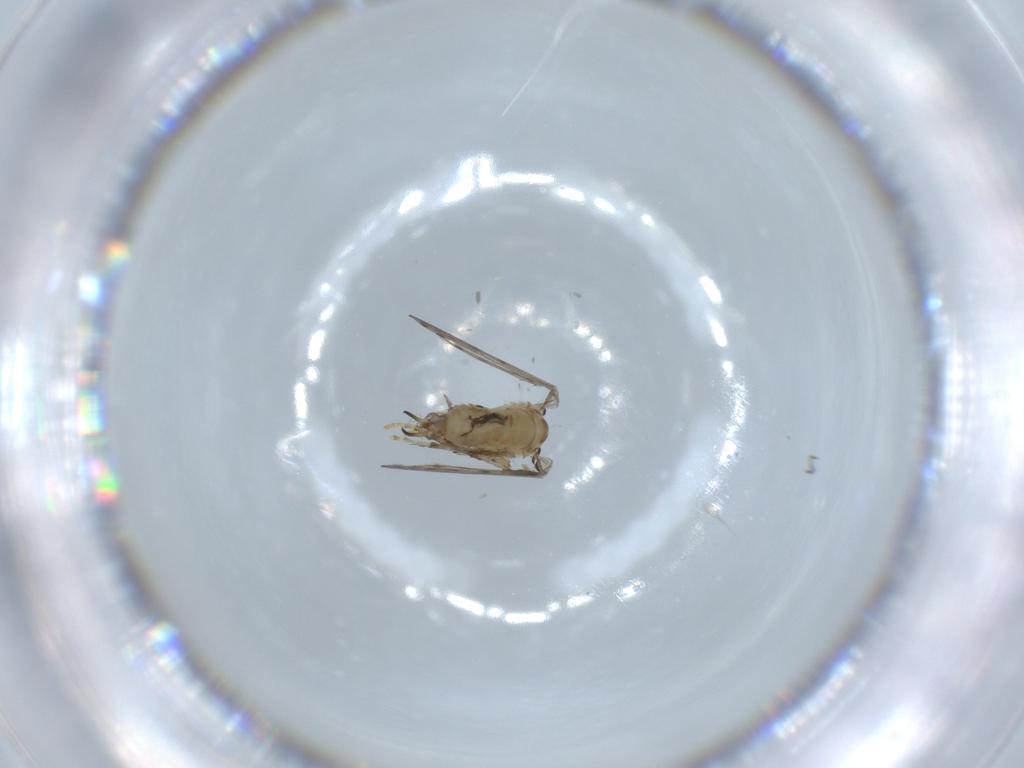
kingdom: Animalia
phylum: Arthropoda
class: Insecta
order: Diptera
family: Psychodidae
